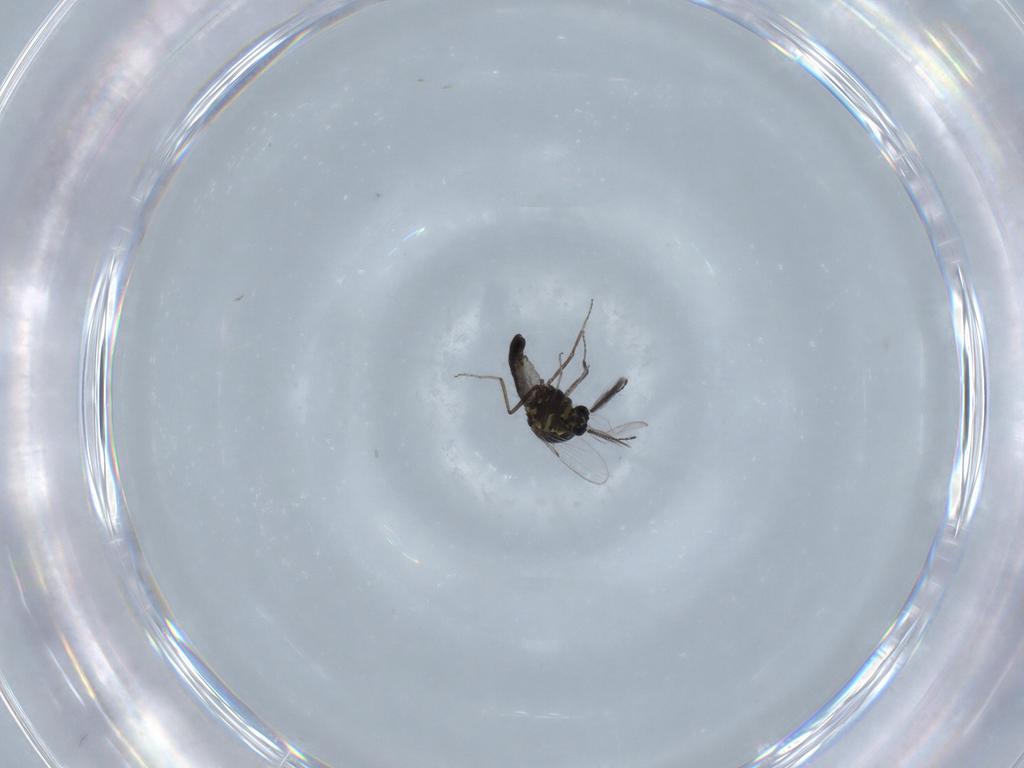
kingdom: Animalia
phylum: Arthropoda
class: Insecta
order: Diptera
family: Ceratopogonidae
